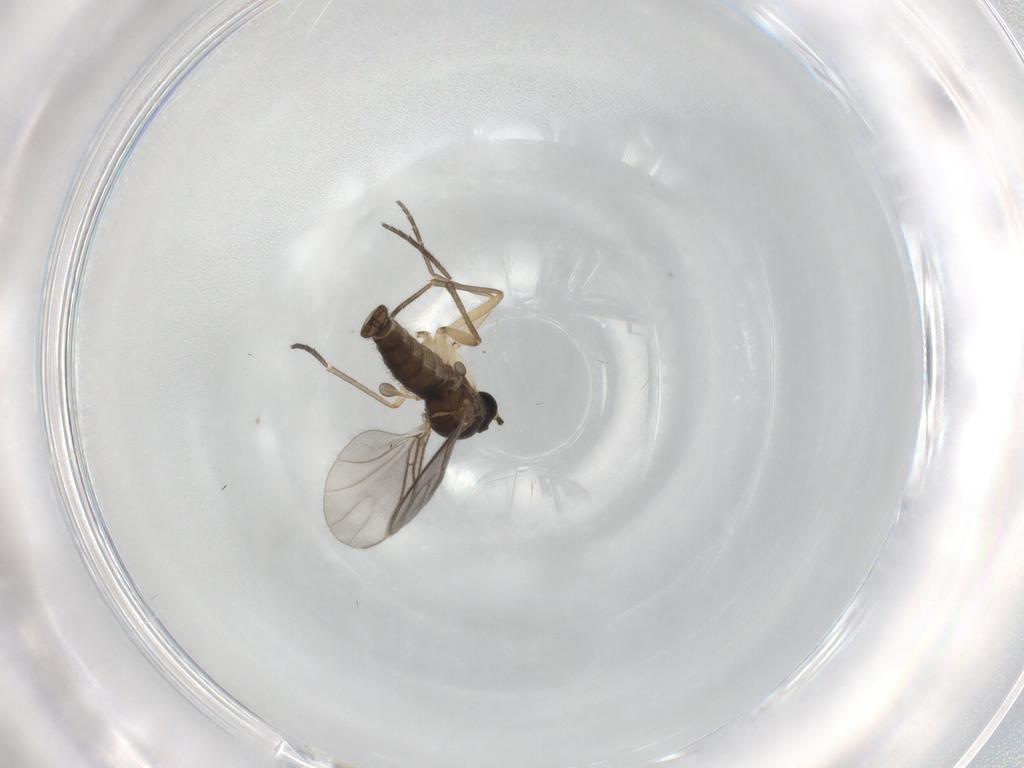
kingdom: Animalia
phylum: Arthropoda
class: Insecta
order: Diptera
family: Chironomidae
